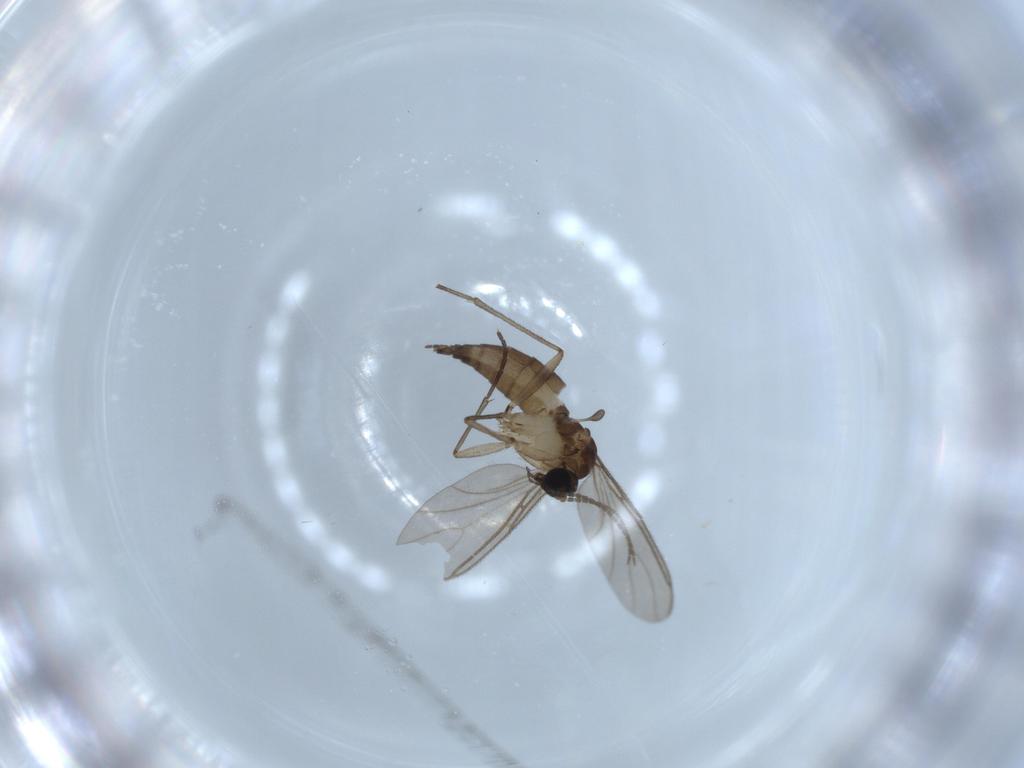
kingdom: Animalia
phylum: Arthropoda
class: Insecta
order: Diptera
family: Sciaridae
